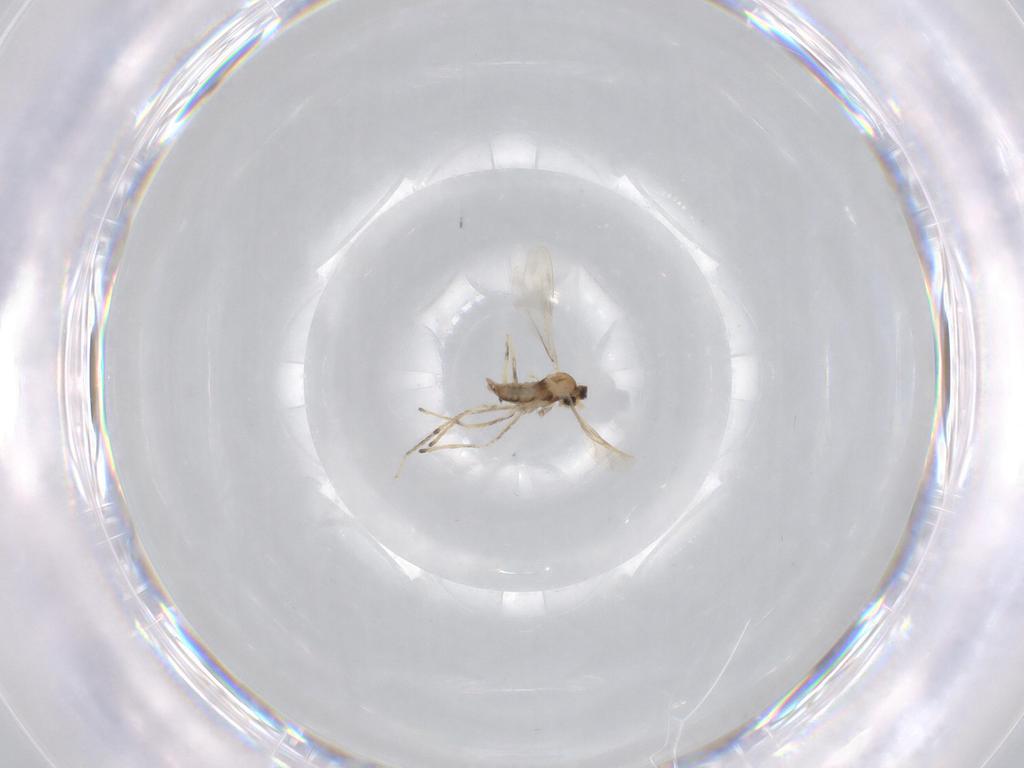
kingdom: Animalia
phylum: Arthropoda
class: Insecta
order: Diptera
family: Cecidomyiidae
